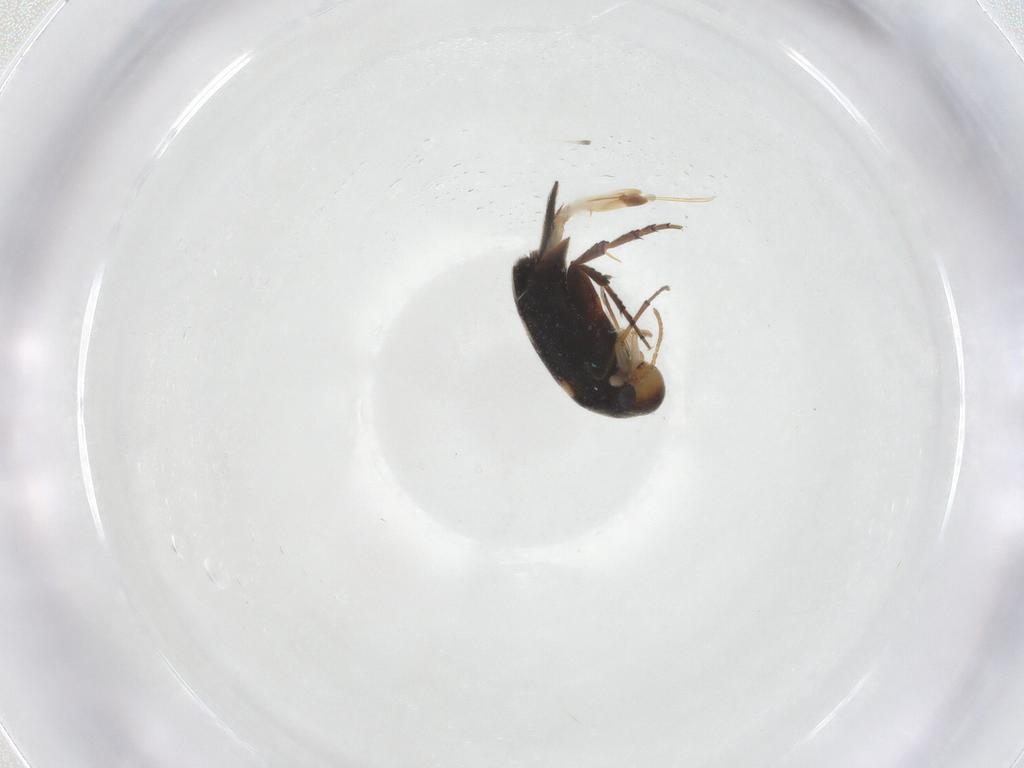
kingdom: Animalia
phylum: Arthropoda
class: Insecta
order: Coleoptera
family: Mordellidae
